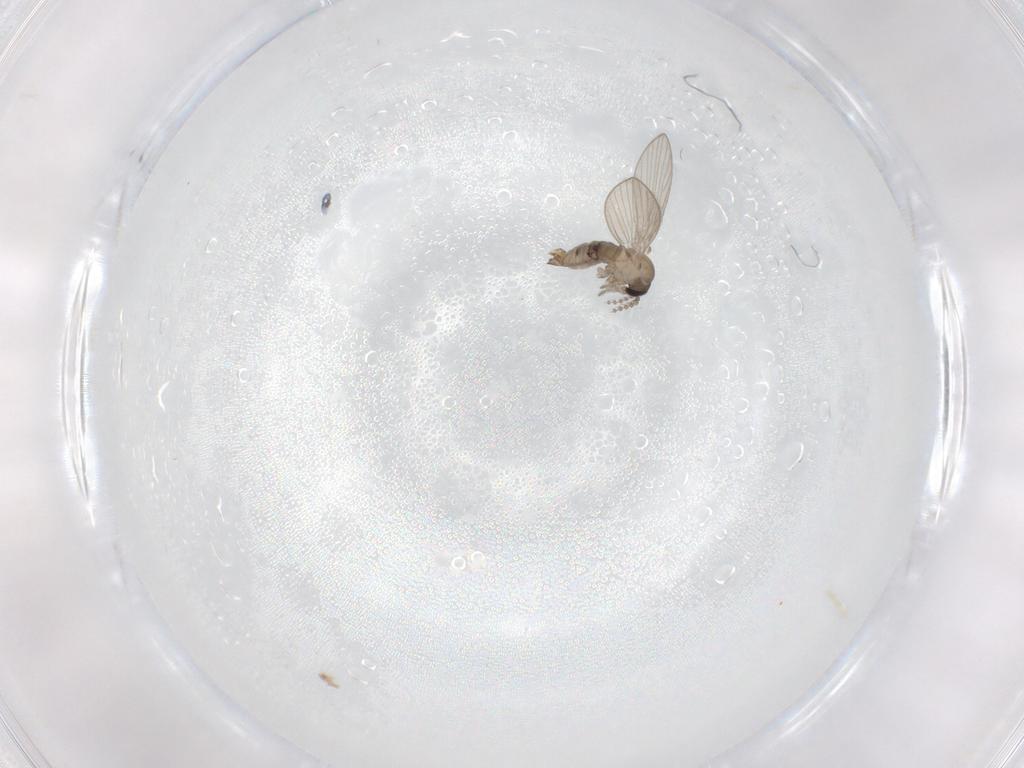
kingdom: Animalia
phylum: Arthropoda
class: Insecta
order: Diptera
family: Psychodidae
